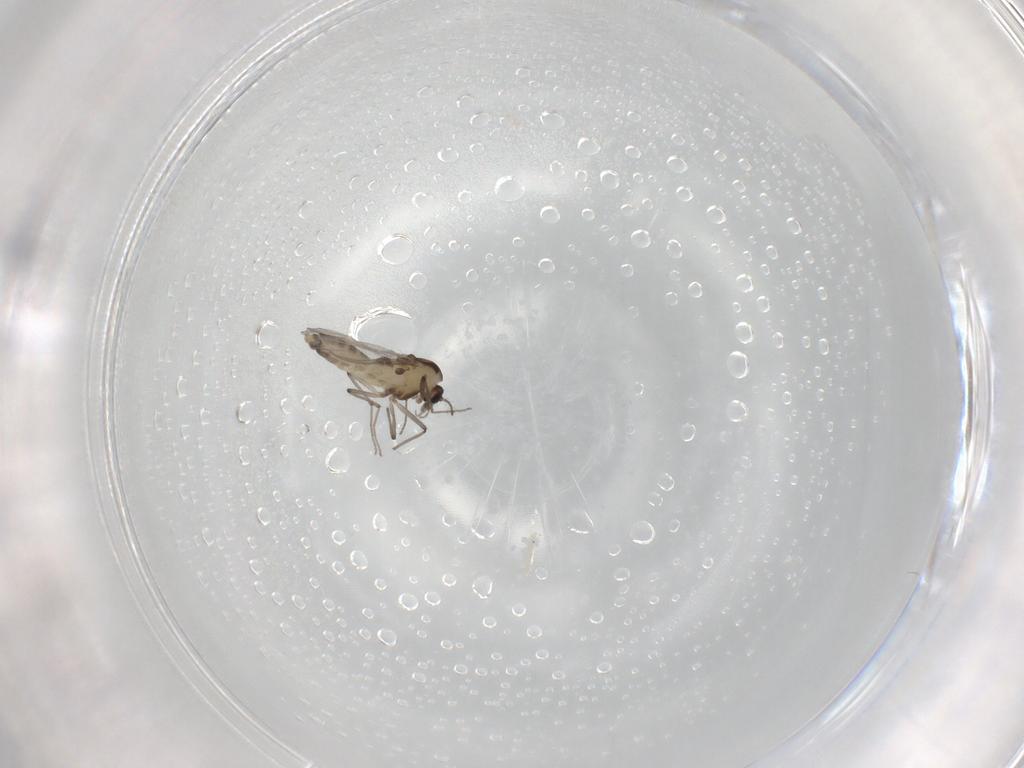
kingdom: Animalia
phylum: Arthropoda
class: Insecta
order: Diptera
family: Chironomidae
